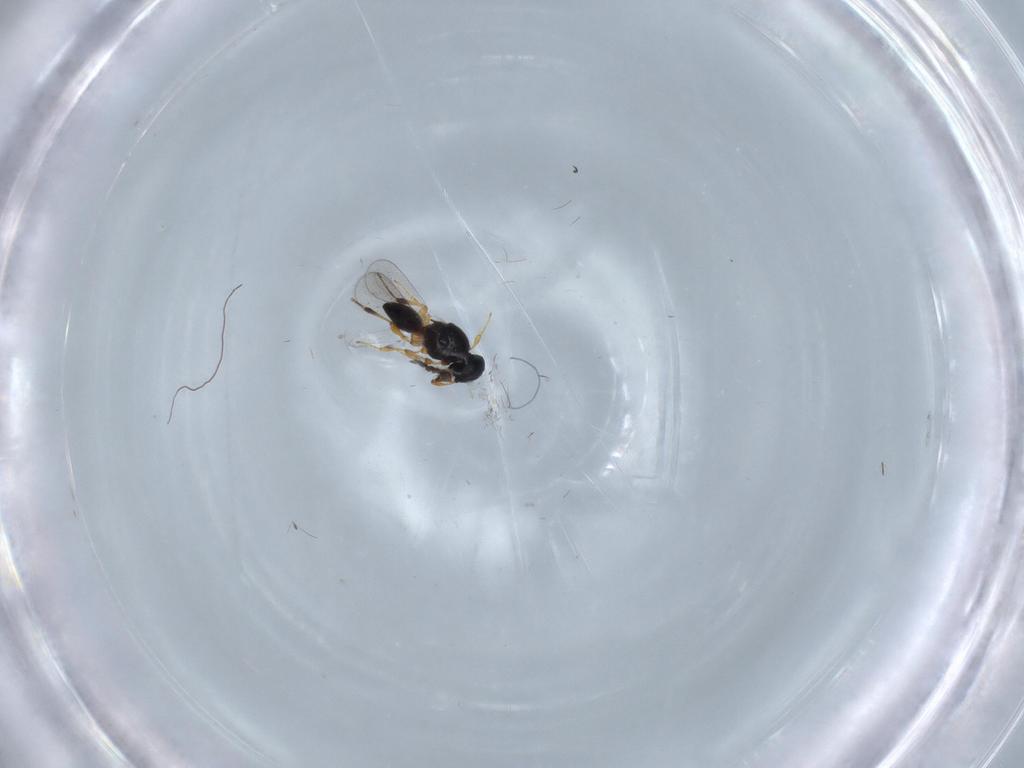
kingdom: Animalia
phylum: Arthropoda
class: Insecta
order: Hymenoptera
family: Platygastridae
